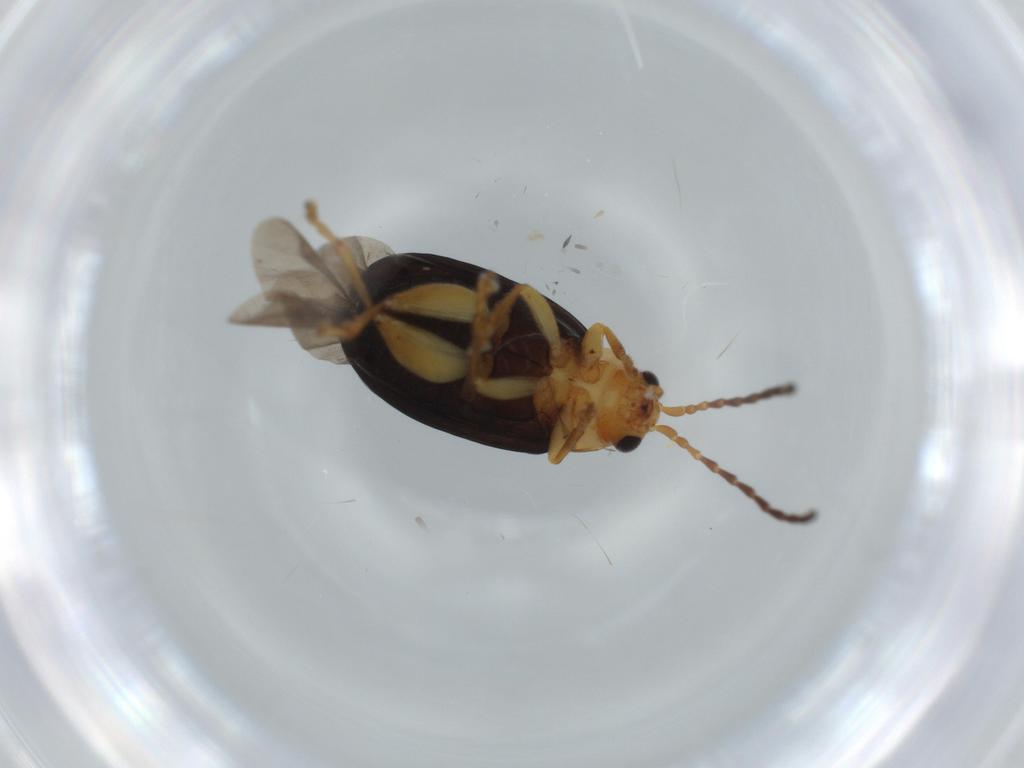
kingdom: Animalia
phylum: Arthropoda
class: Insecta
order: Coleoptera
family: Chrysomelidae
